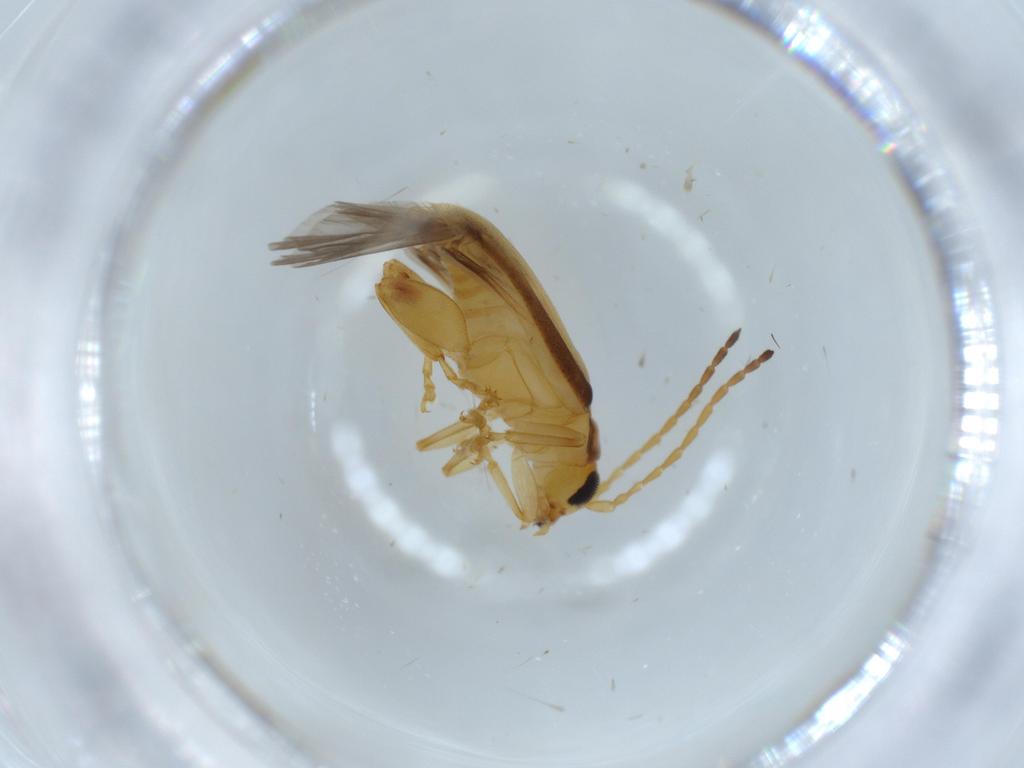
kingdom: Animalia
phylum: Arthropoda
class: Insecta
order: Coleoptera
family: Chrysomelidae
